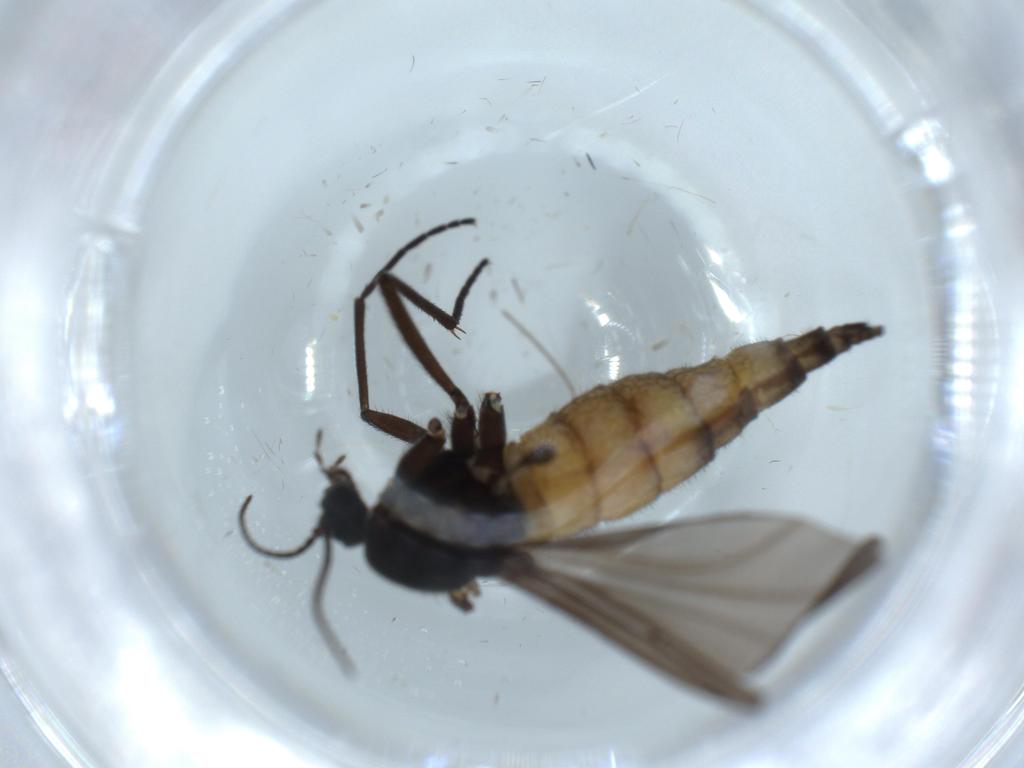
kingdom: Animalia
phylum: Arthropoda
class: Insecta
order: Diptera
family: Sciaridae
